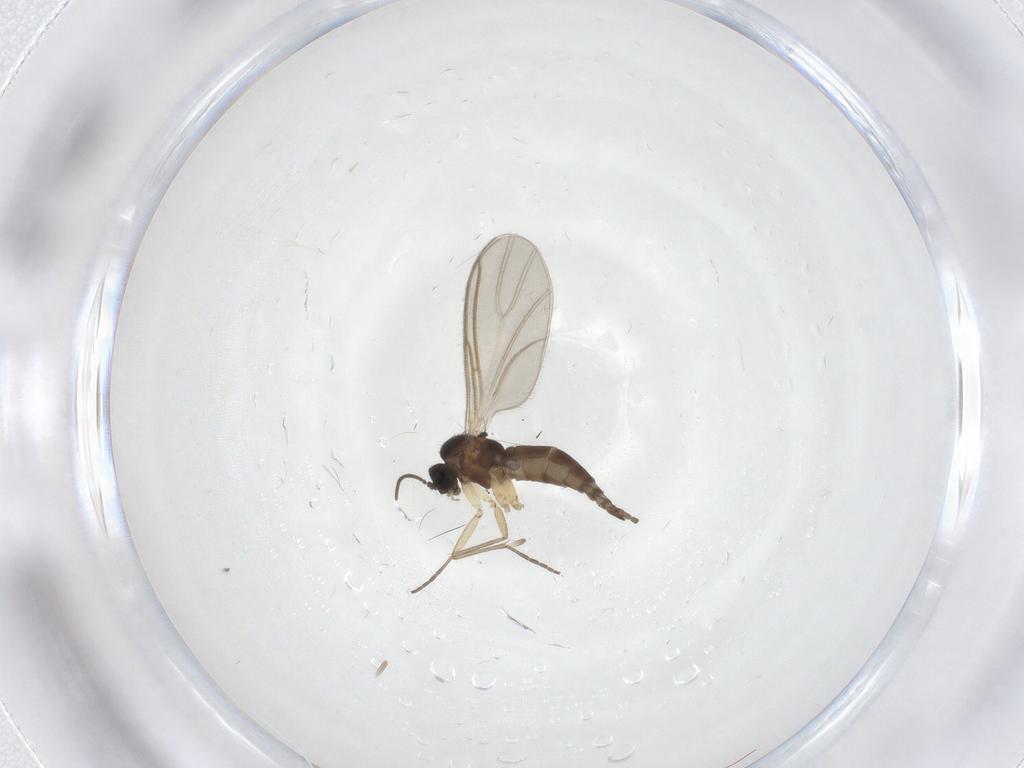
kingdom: Animalia
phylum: Arthropoda
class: Insecta
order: Diptera
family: Sciaridae
